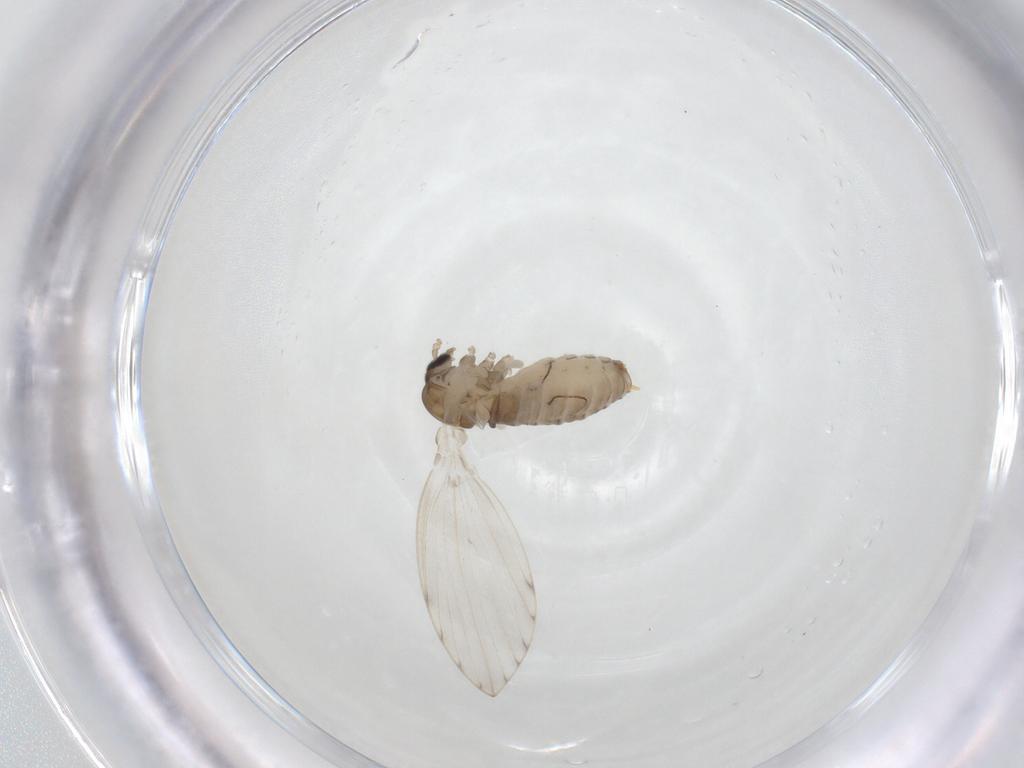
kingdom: Animalia
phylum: Arthropoda
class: Insecta
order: Diptera
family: Psychodidae
